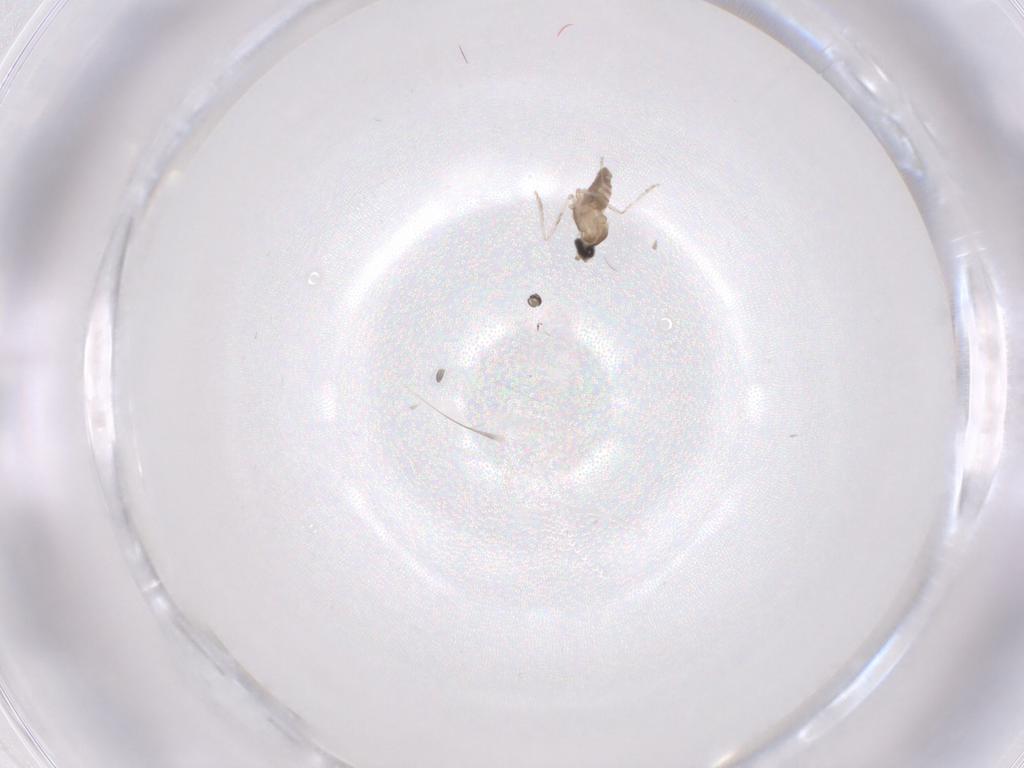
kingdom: Animalia
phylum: Arthropoda
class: Insecta
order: Diptera
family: Cecidomyiidae
